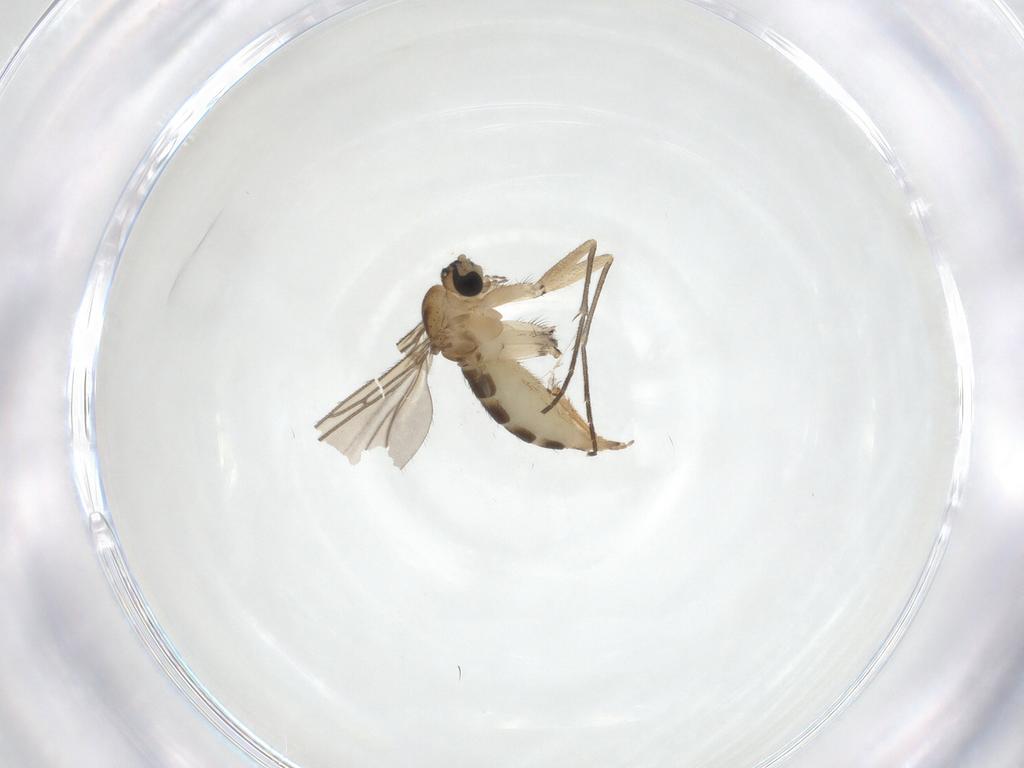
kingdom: Animalia
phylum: Arthropoda
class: Insecta
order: Diptera
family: Sciaridae
